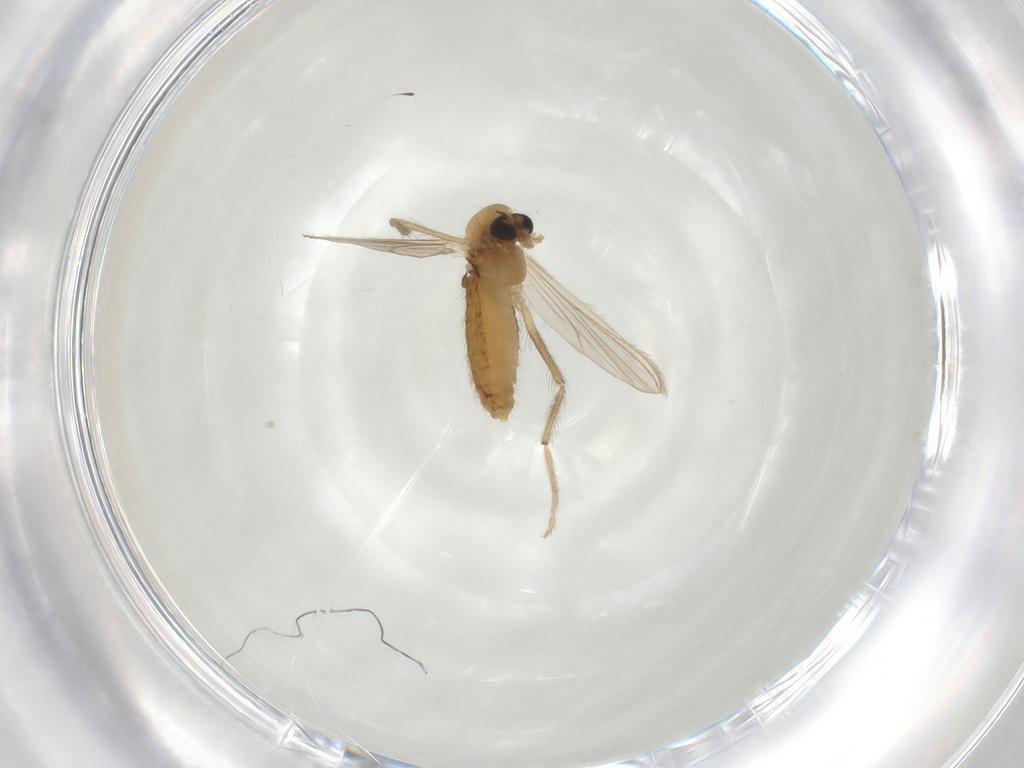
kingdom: Animalia
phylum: Arthropoda
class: Insecta
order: Diptera
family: Chironomidae
